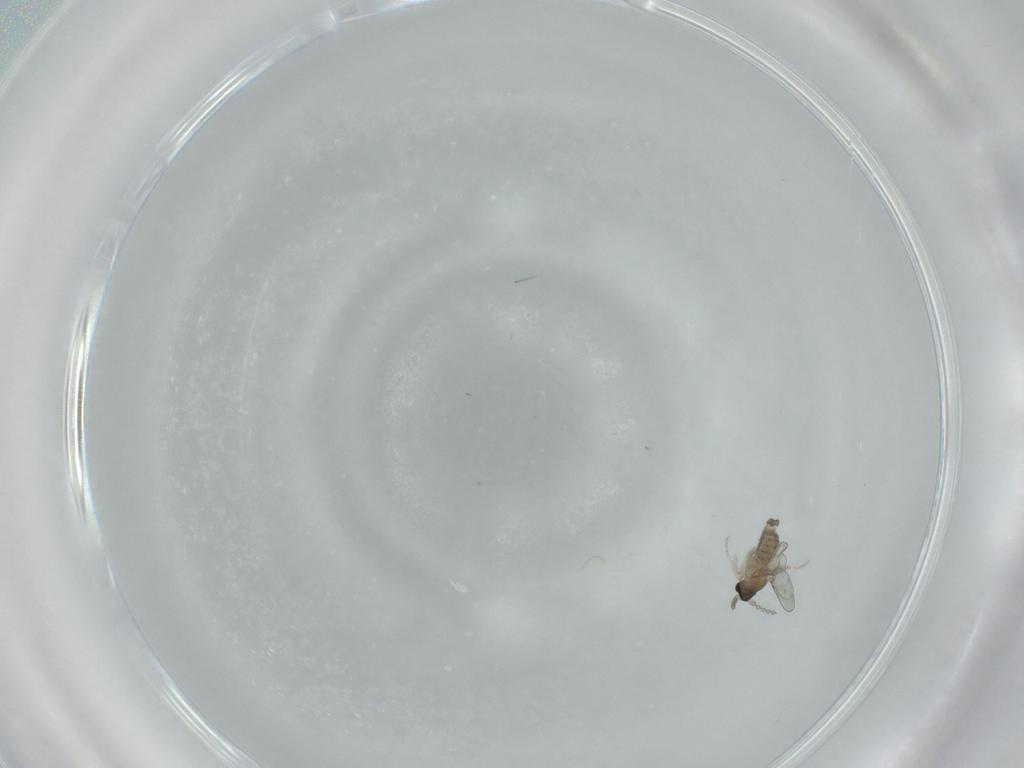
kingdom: Animalia
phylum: Arthropoda
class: Insecta
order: Diptera
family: Cecidomyiidae
